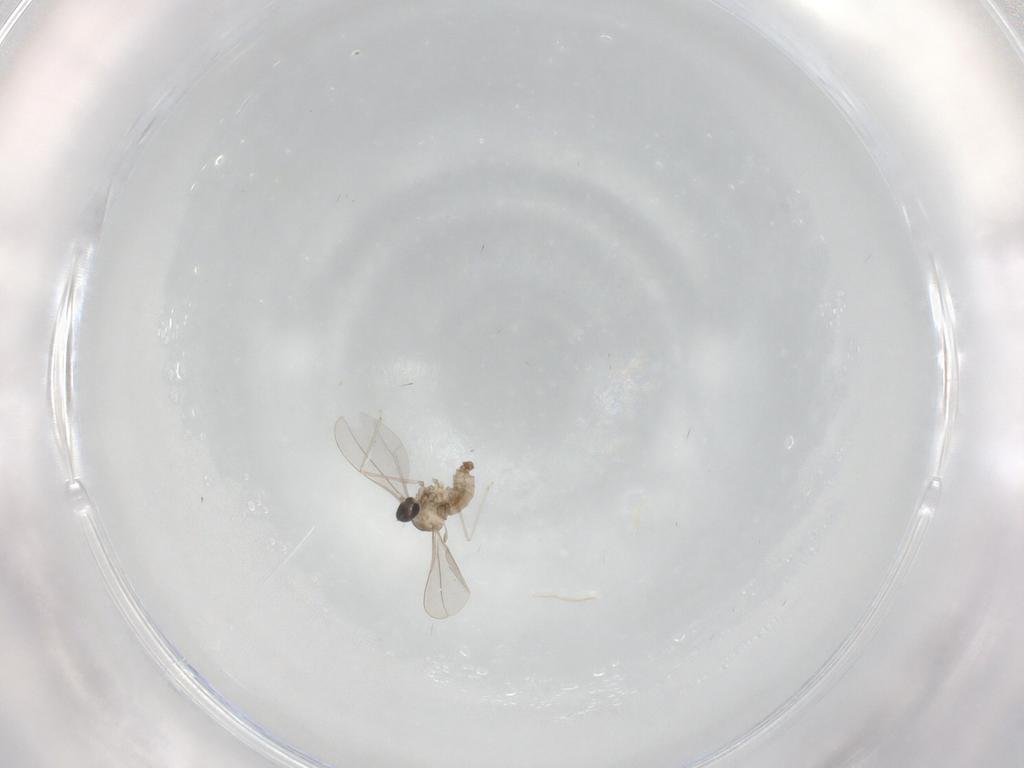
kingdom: Animalia
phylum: Arthropoda
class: Insecta
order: Diptera
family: Cecidomyiidae
